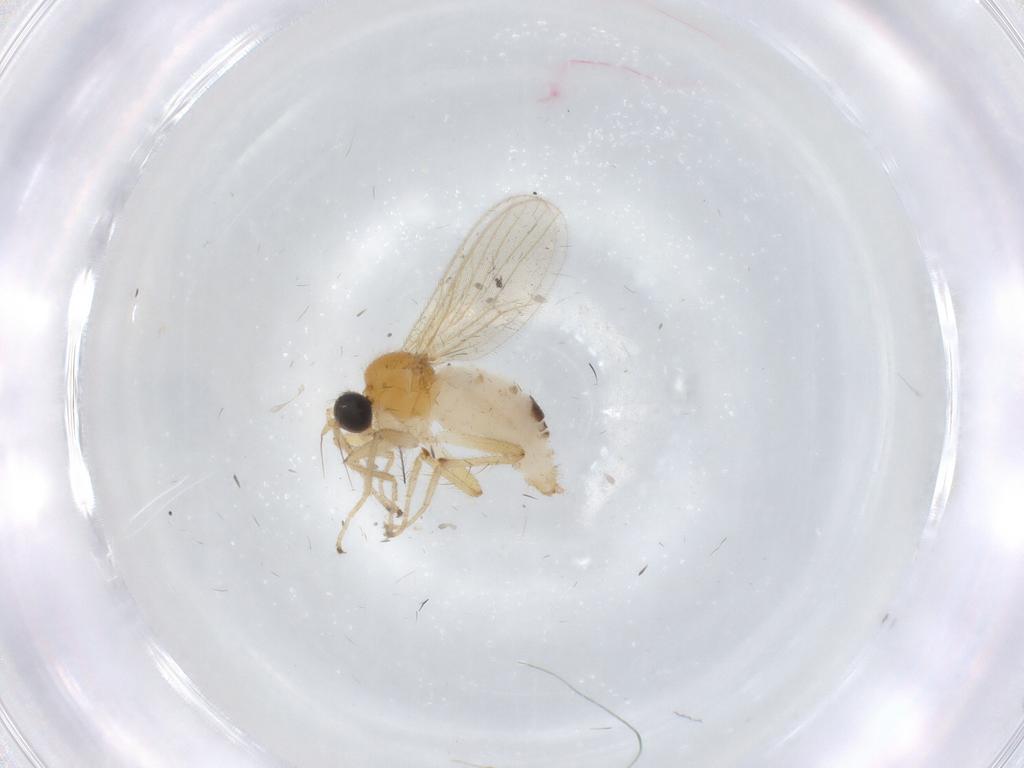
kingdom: Animalia
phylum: Arthropoda
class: Insecta
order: Diptera
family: Hybotidae
